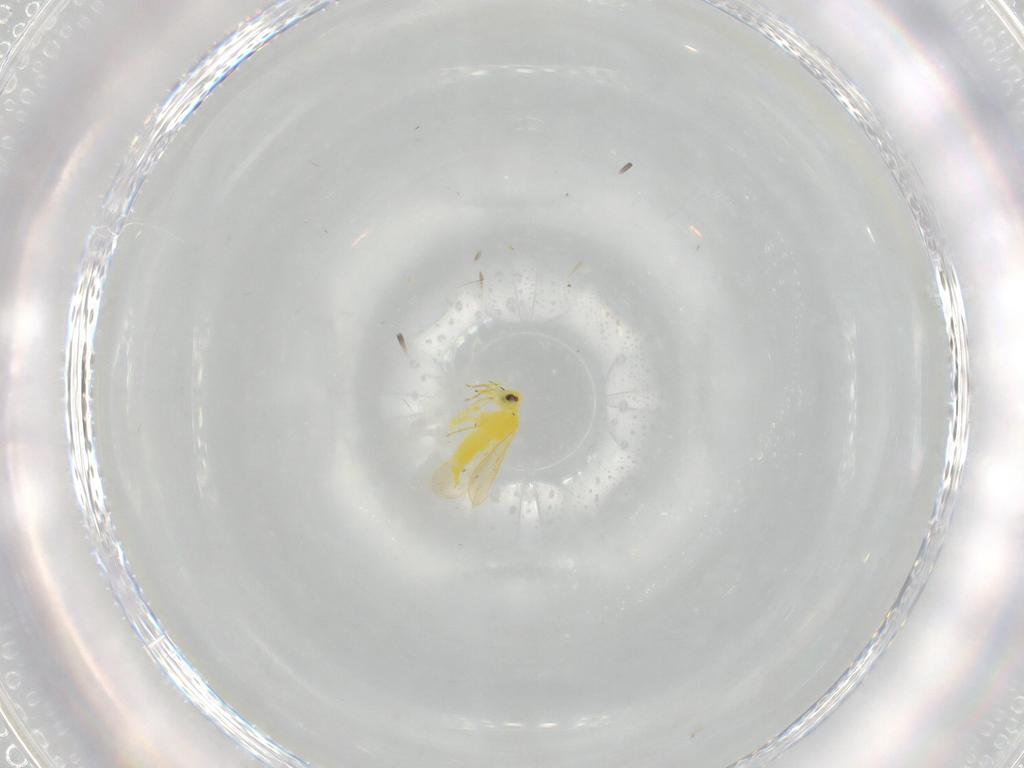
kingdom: Animalia
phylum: Arthropoda
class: Insecta
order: Hemiptera
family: Aleyrodidae
